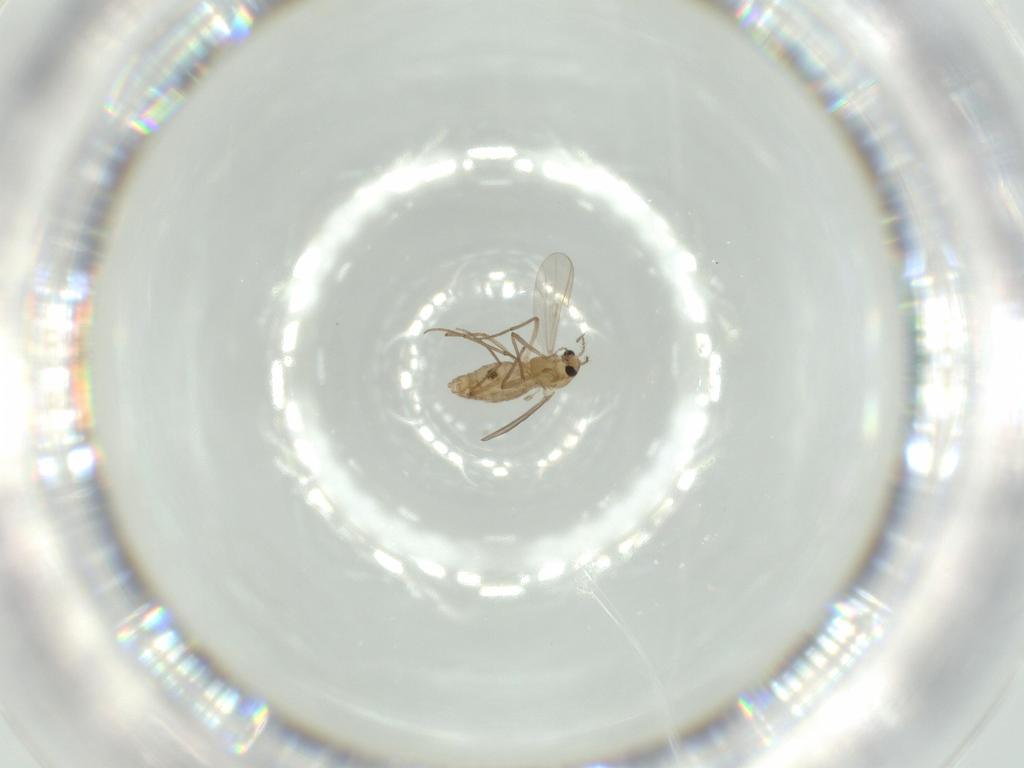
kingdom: Animalia
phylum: Arthropoda
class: Insecta
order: Diptera
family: Chironomidae
